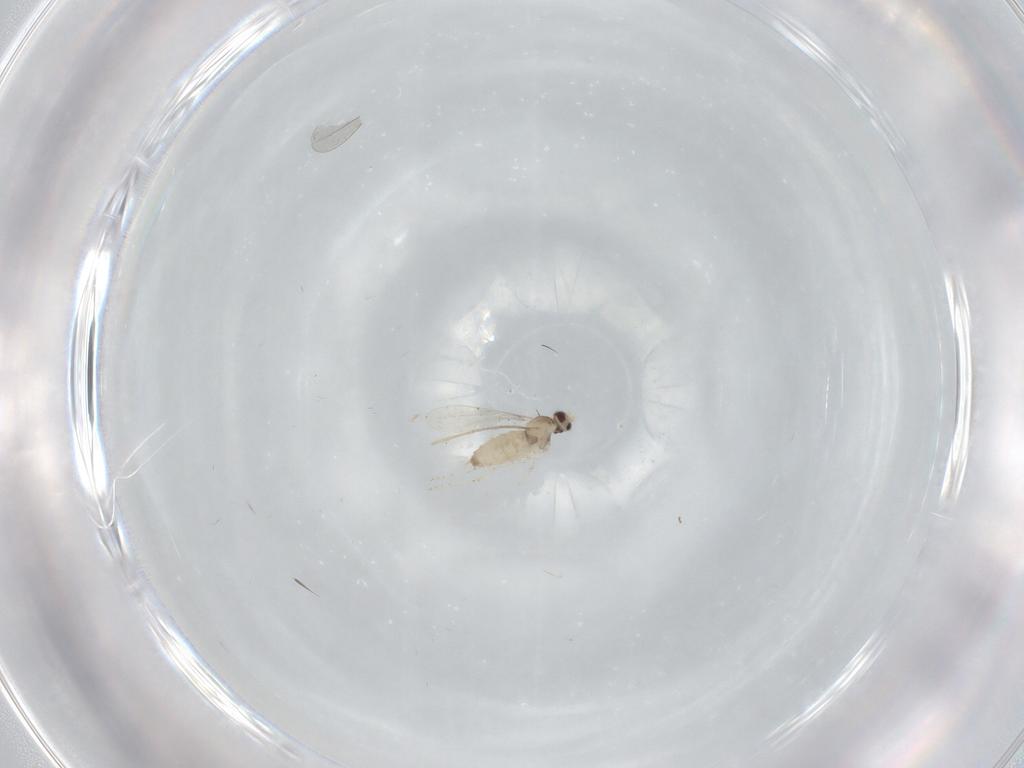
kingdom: Animalia
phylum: Arthropoda
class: Insecta
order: Diptera
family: Cecidomyiidae
